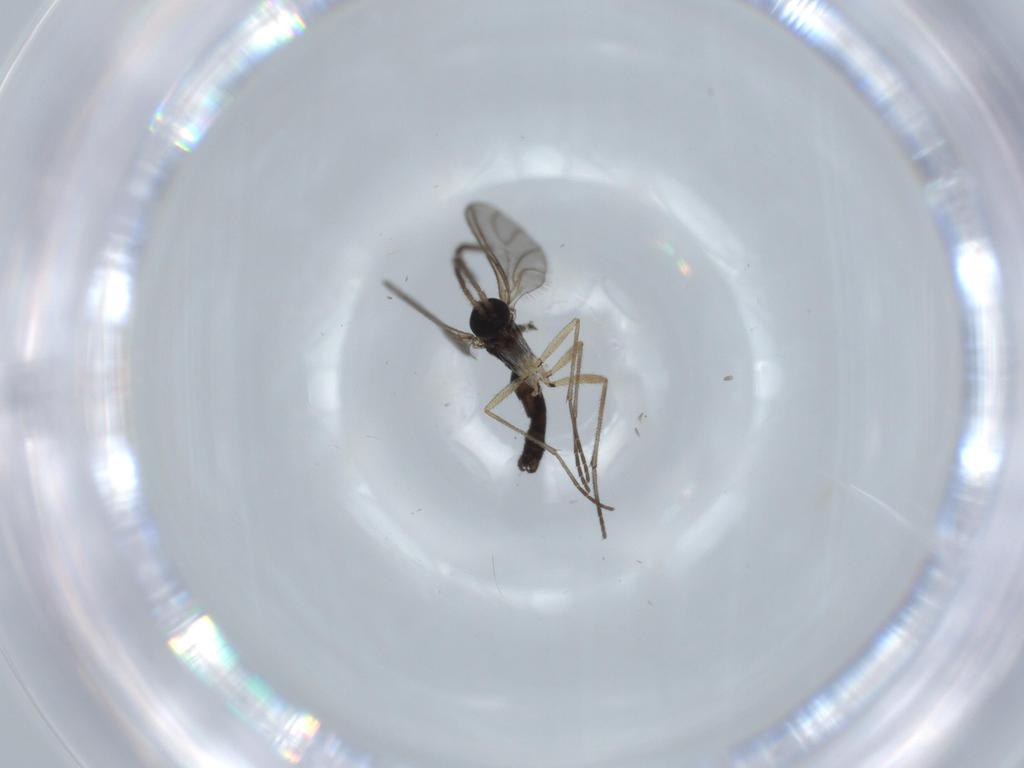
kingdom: Animalia
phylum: Arthropoda
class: Insecta
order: Diptera
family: Sciaridae
